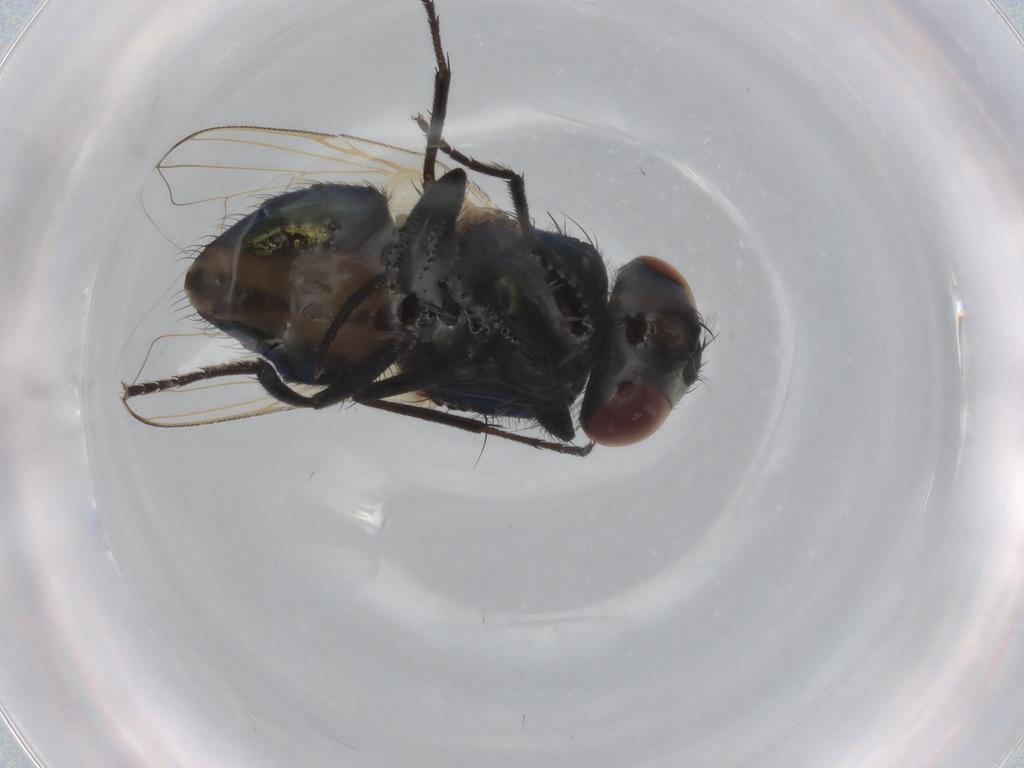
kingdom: Animalia
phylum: Arthropoda
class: Insecta
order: Diptera
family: Muscidae
